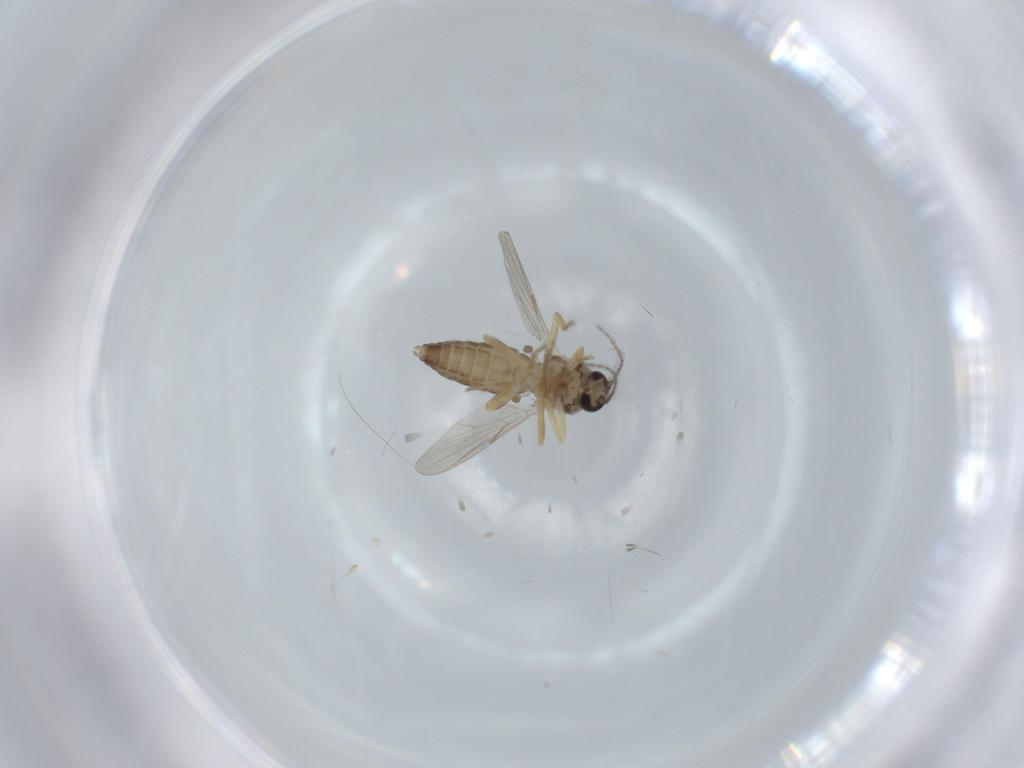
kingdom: Animalia
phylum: Arthropoda
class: Insecta
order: Diptera
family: Ceratopogonidae
